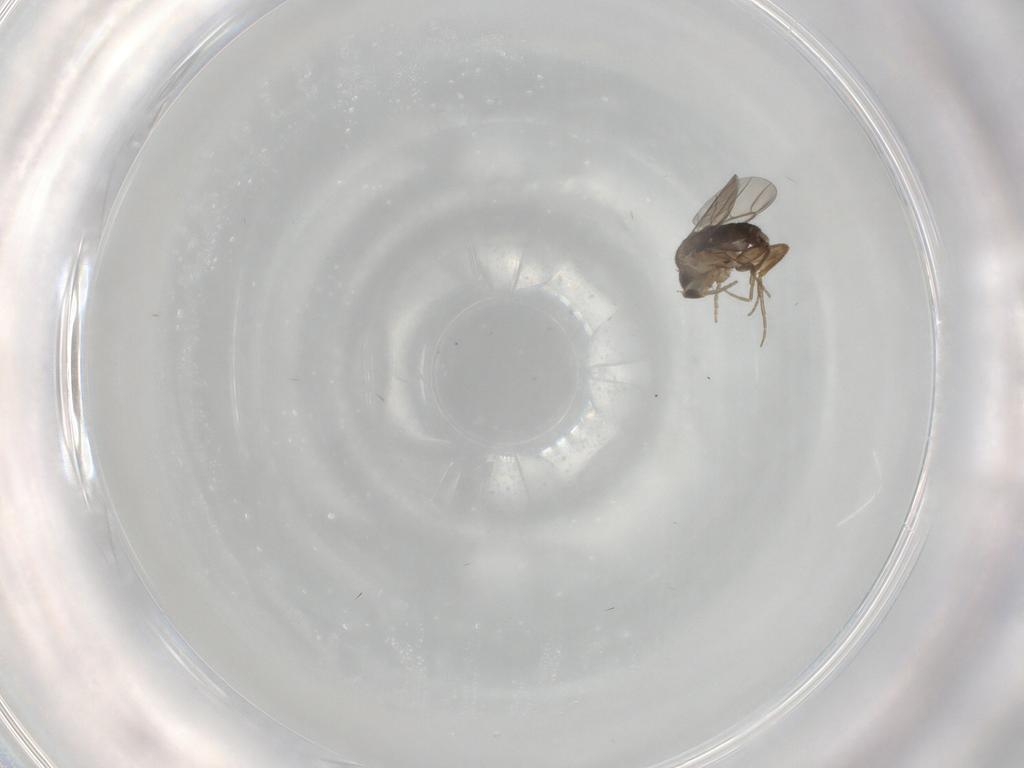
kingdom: Animalia
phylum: Arthropoda
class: Insecta
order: Diptera
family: Phoridae
